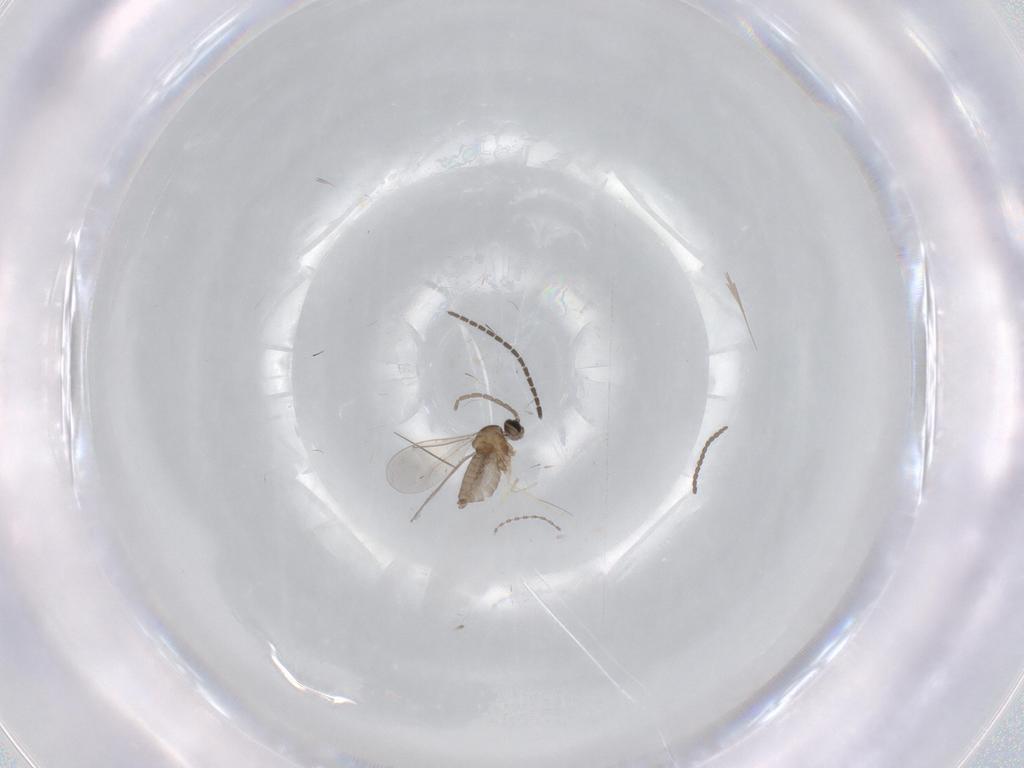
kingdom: Animalia
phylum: Arthropoda
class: Insecta
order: Diptera
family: Sciaridae
